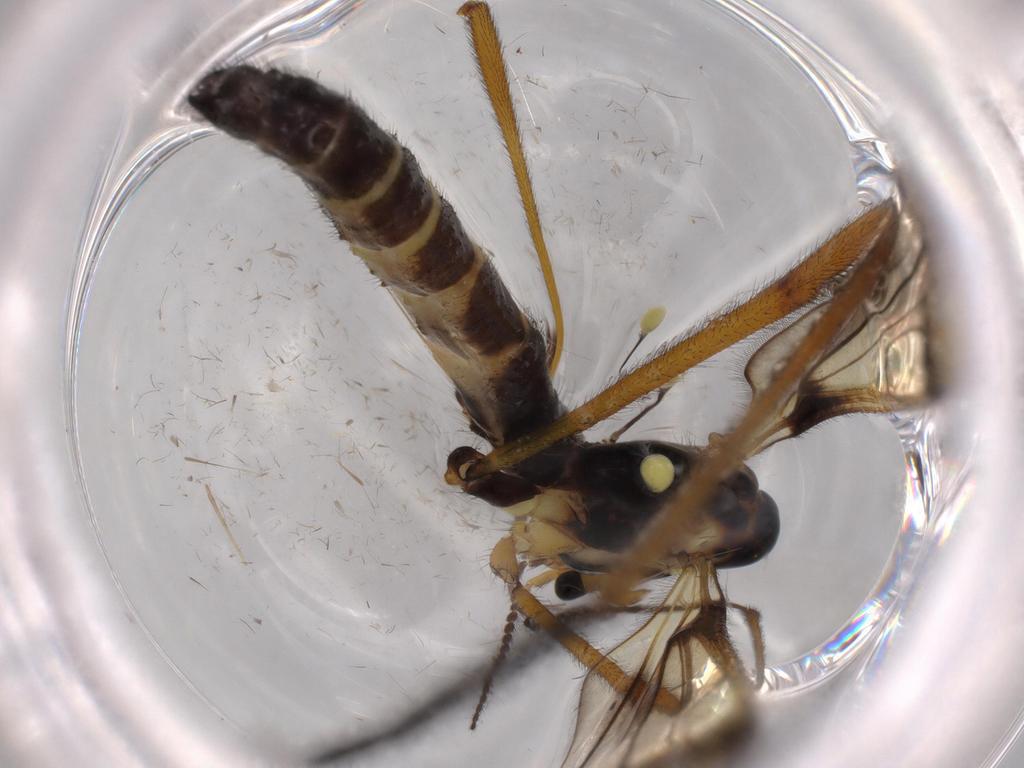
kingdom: Animalia
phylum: Arthropoda
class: Insecta
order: Diptera
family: Limoniidae
